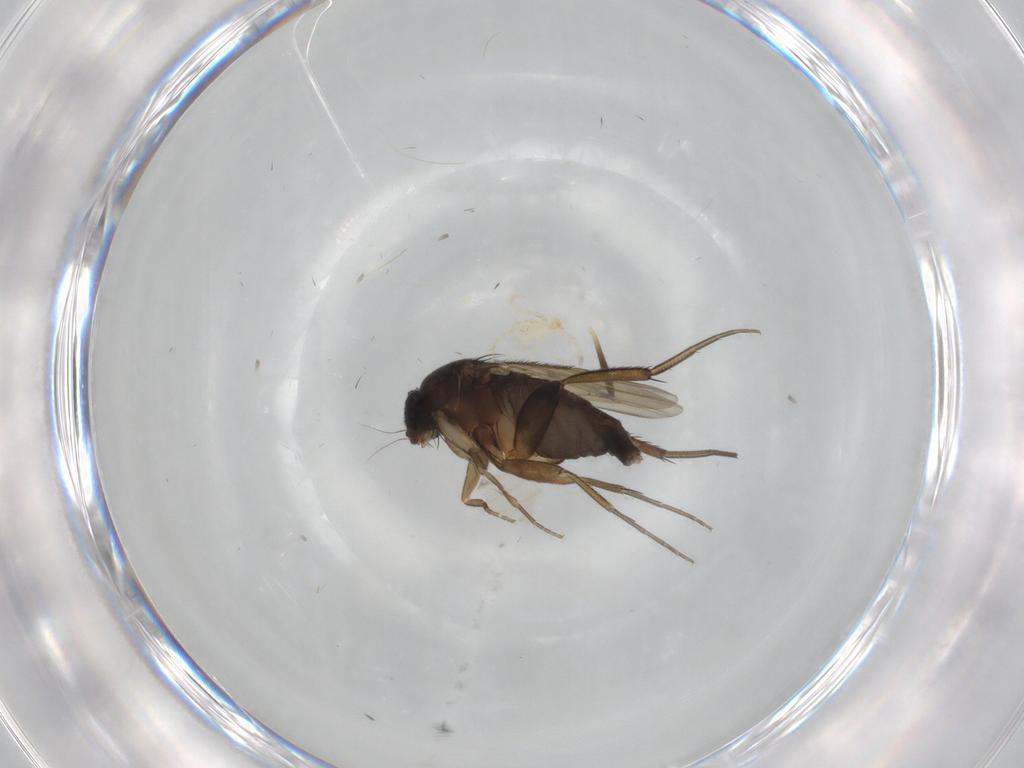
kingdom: Animalia
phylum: Arthropoda
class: Insecta
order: Diptera
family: Phoridae
